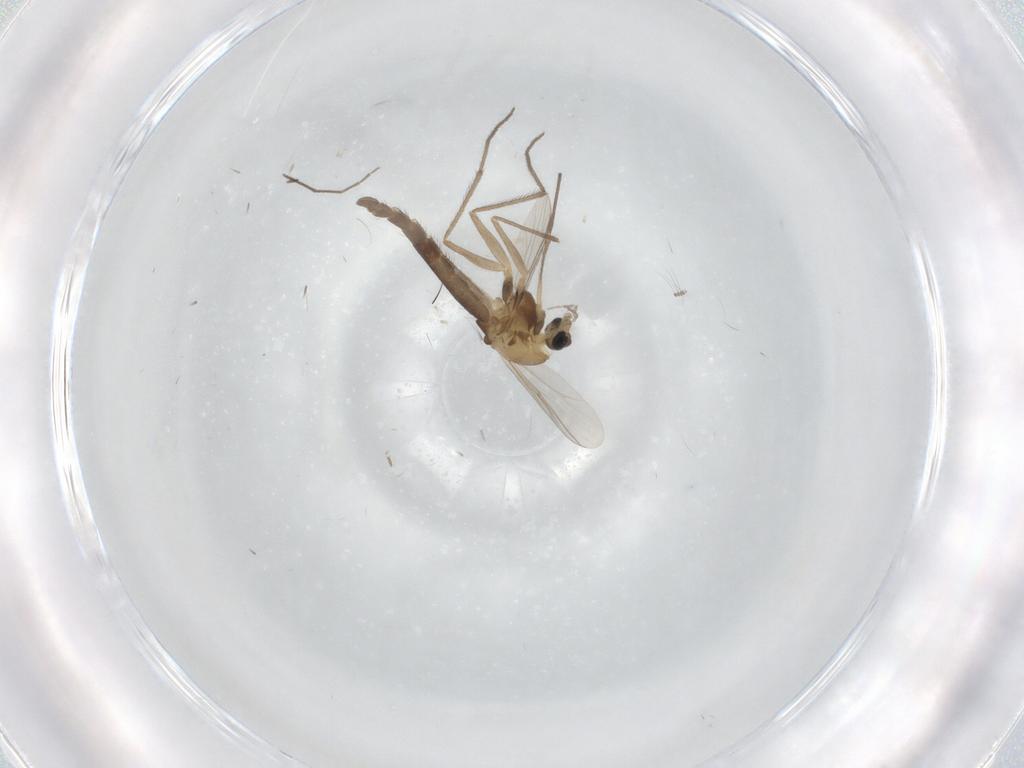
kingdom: Animalia
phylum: Arthropoda
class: Insecta
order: Diptera
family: Chironomidae
